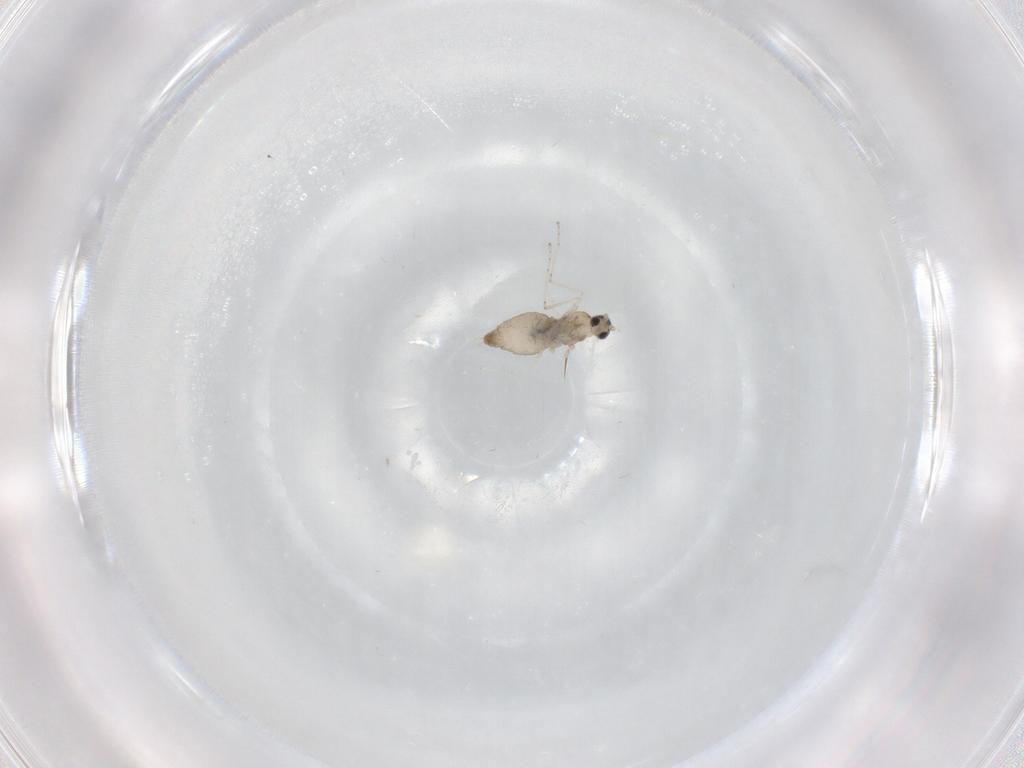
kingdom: Animalia
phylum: Arthropoda
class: Insecta
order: Diptera
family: Cecidomyiidae
